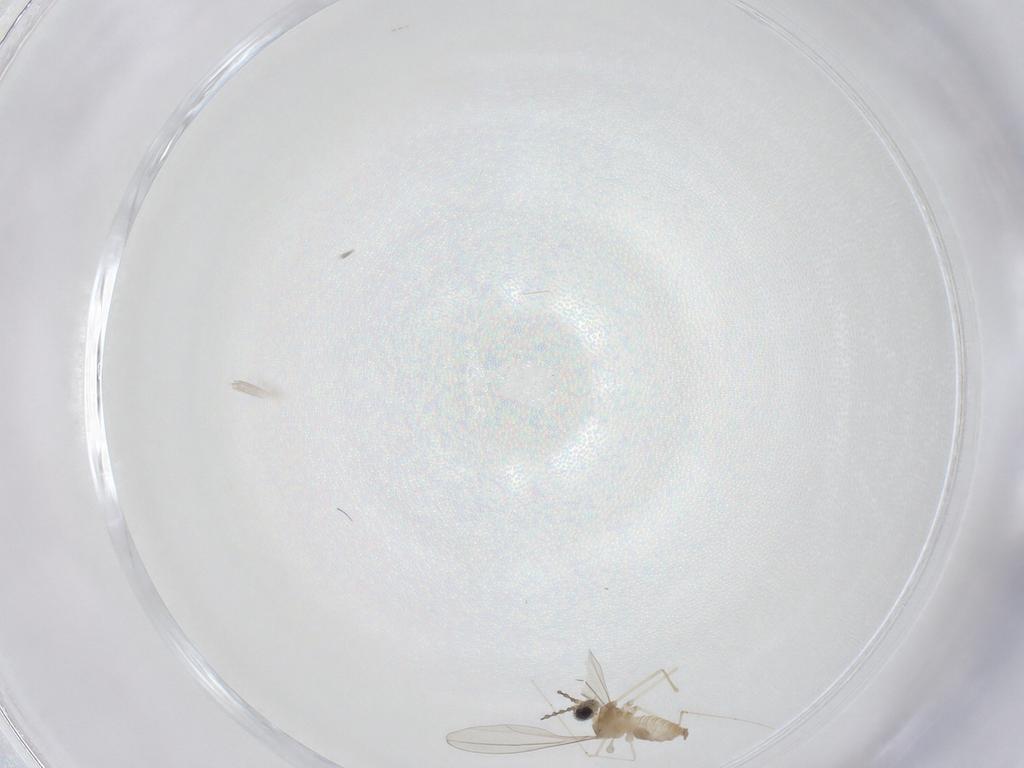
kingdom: Animalia
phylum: Arthropoda
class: Insecta
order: Diptera
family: Cecidomyiidae
